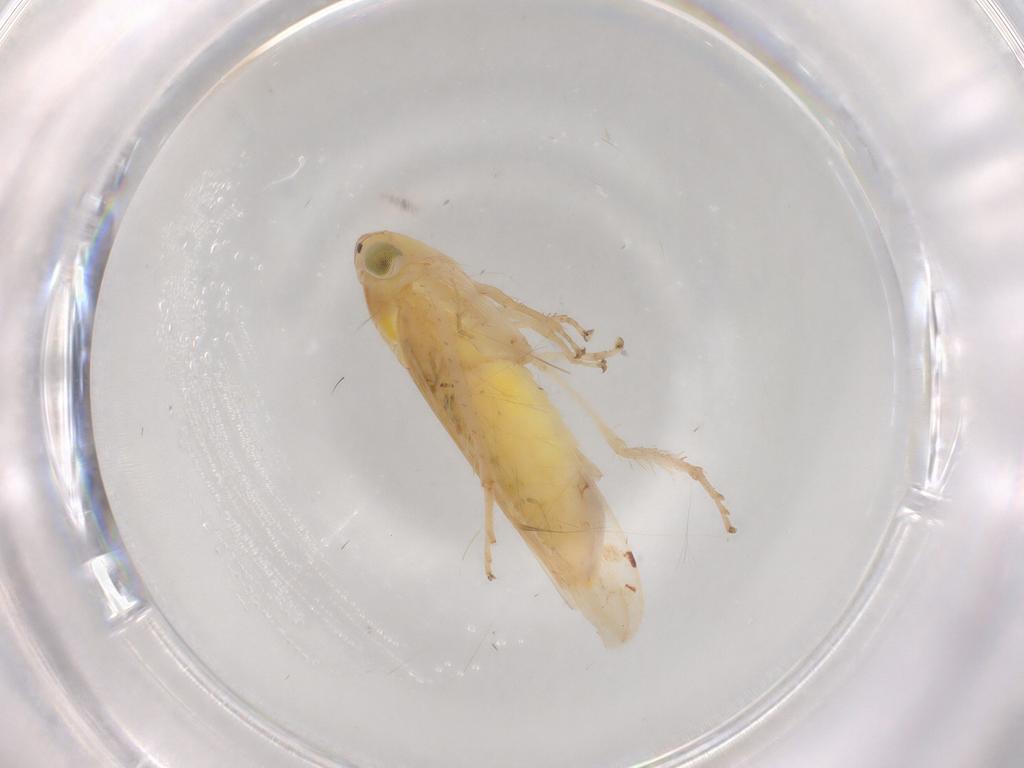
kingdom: Animalia
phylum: Arthropoda
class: Insecta
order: Hemiptera
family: Cicadellidae
